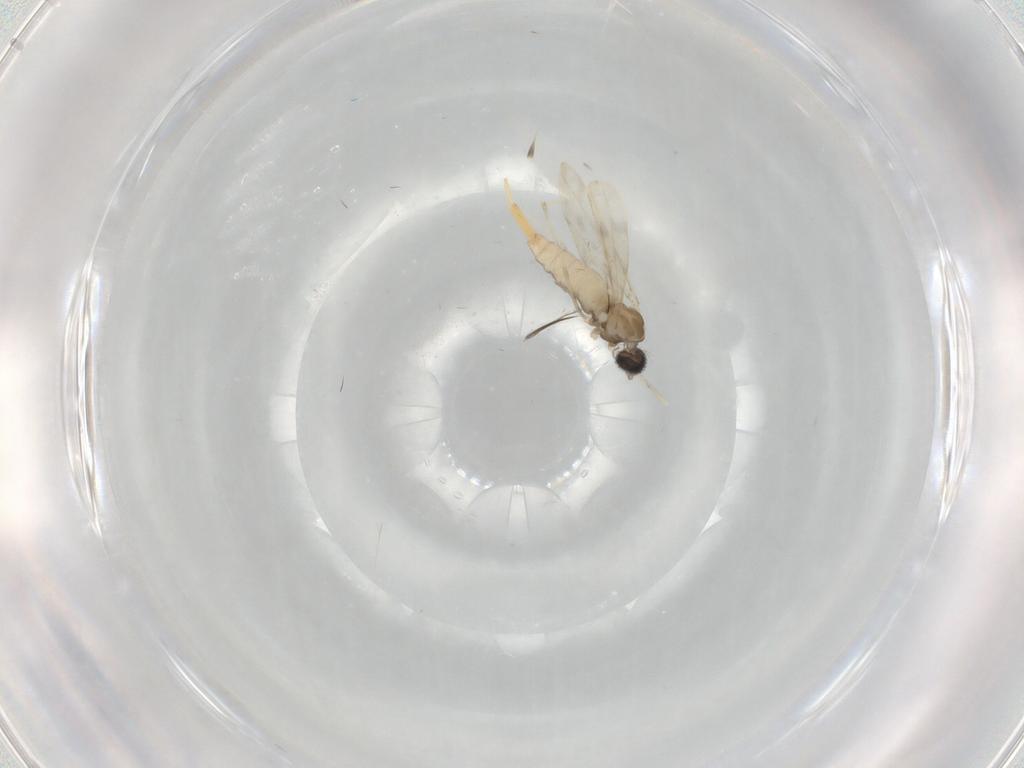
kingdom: Animalia
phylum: Arthropoda
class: Insecta
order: Diptera
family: Cecidomyiidae
